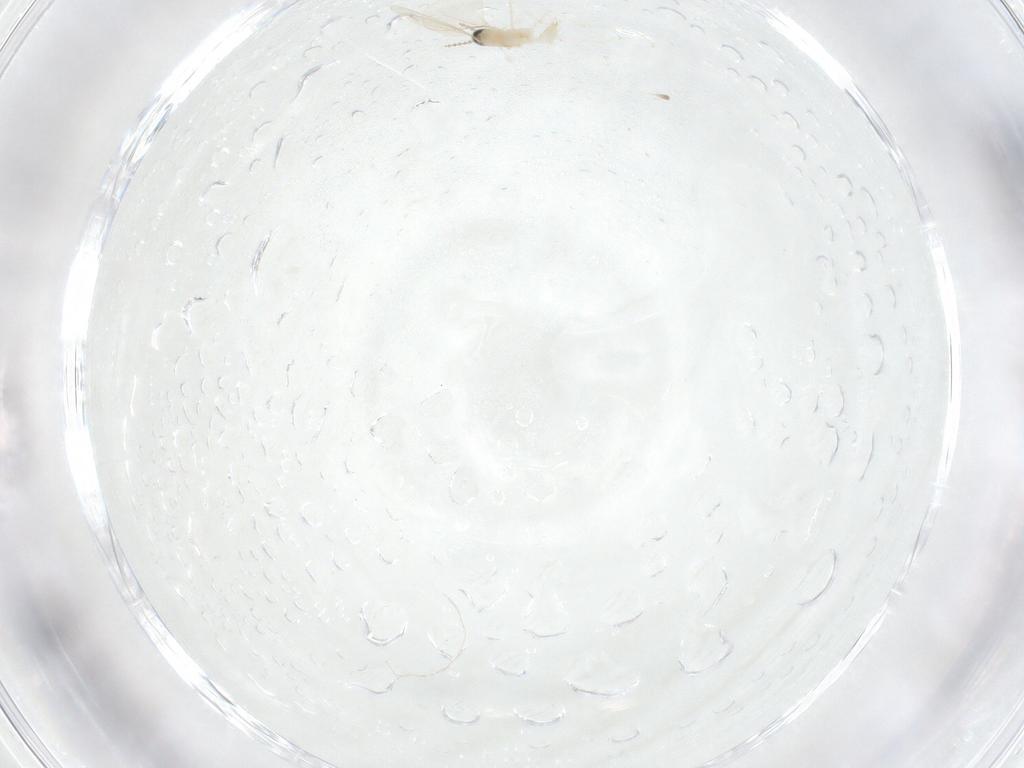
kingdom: Animalia
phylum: Arthropoda
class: Insecta
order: Diptera
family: Cecidomyiidae
